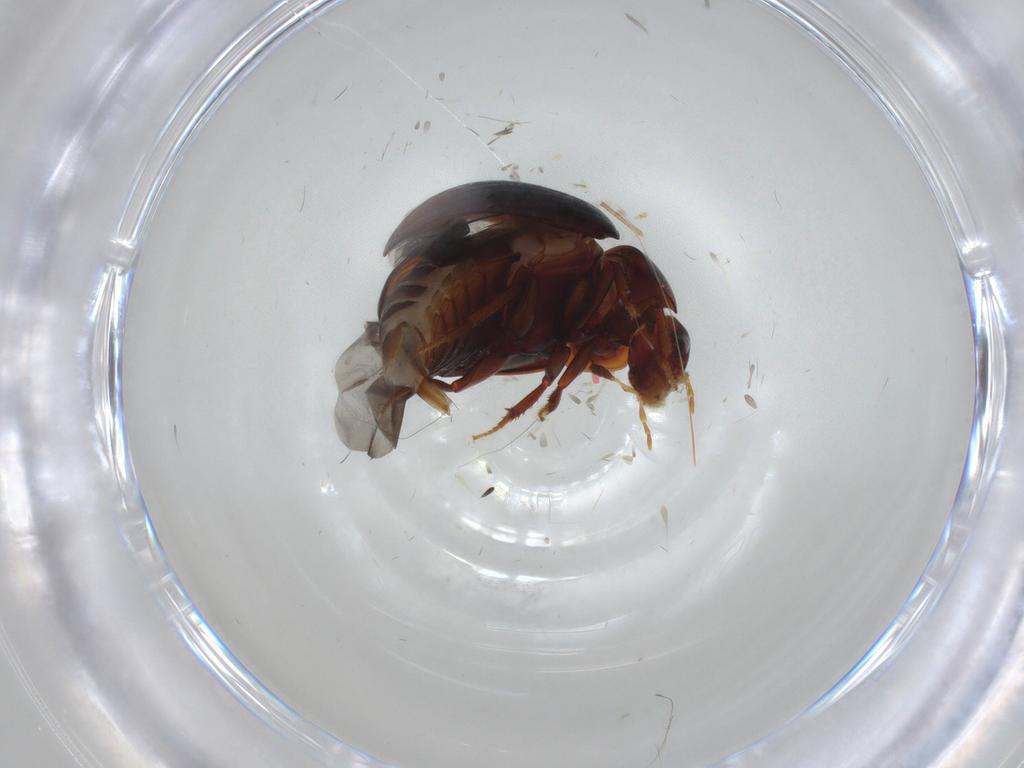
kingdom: Animalia
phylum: Arthropoda
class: Insecta
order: Coleoptera
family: Hydrophilidae
